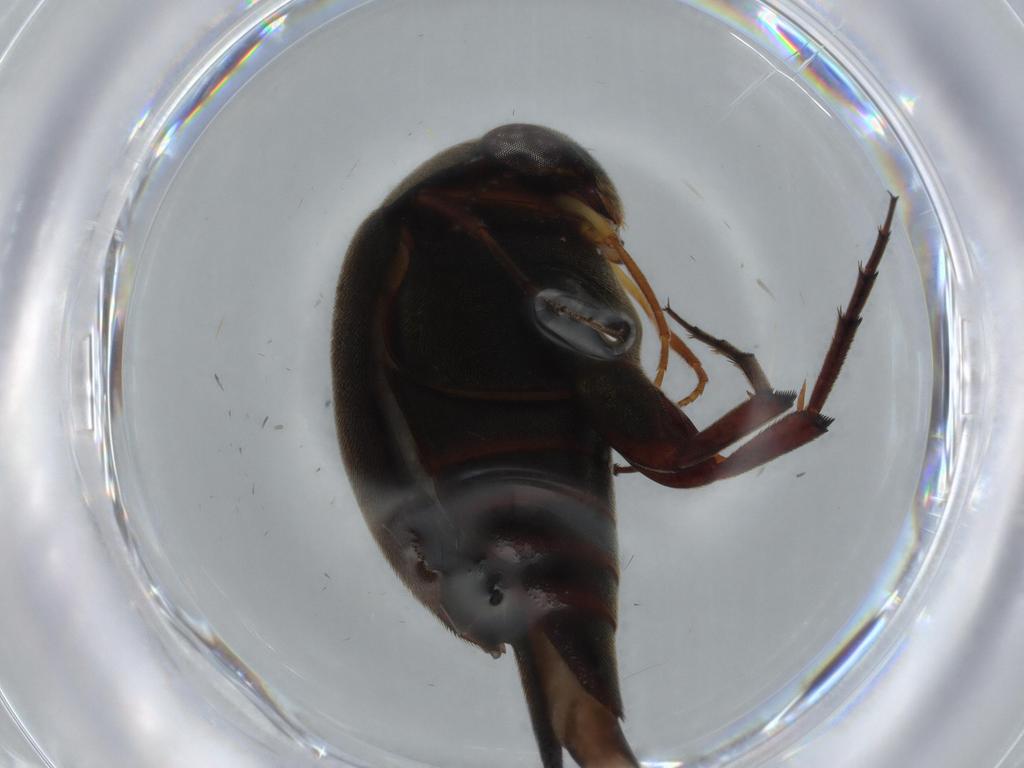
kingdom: Animalia
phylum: Arthropoda
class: Insecta
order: Coleoptera
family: Mordellidae
